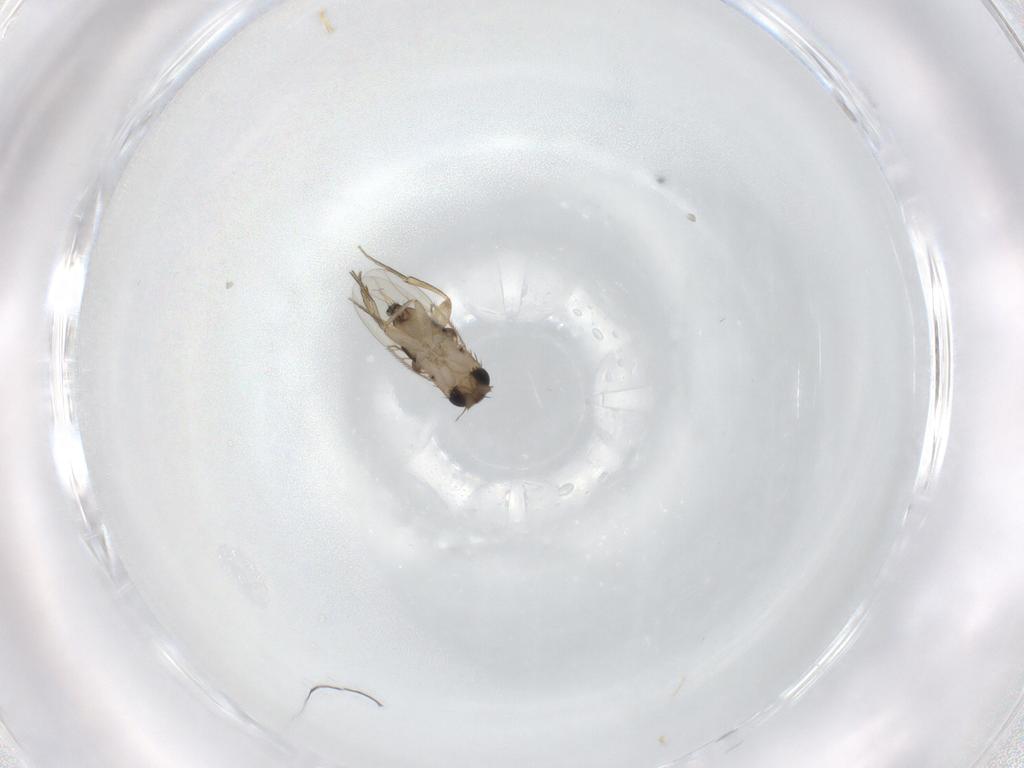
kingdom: Animalia
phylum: Arthropoda
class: Insecta
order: Diptera
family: Phoridae
